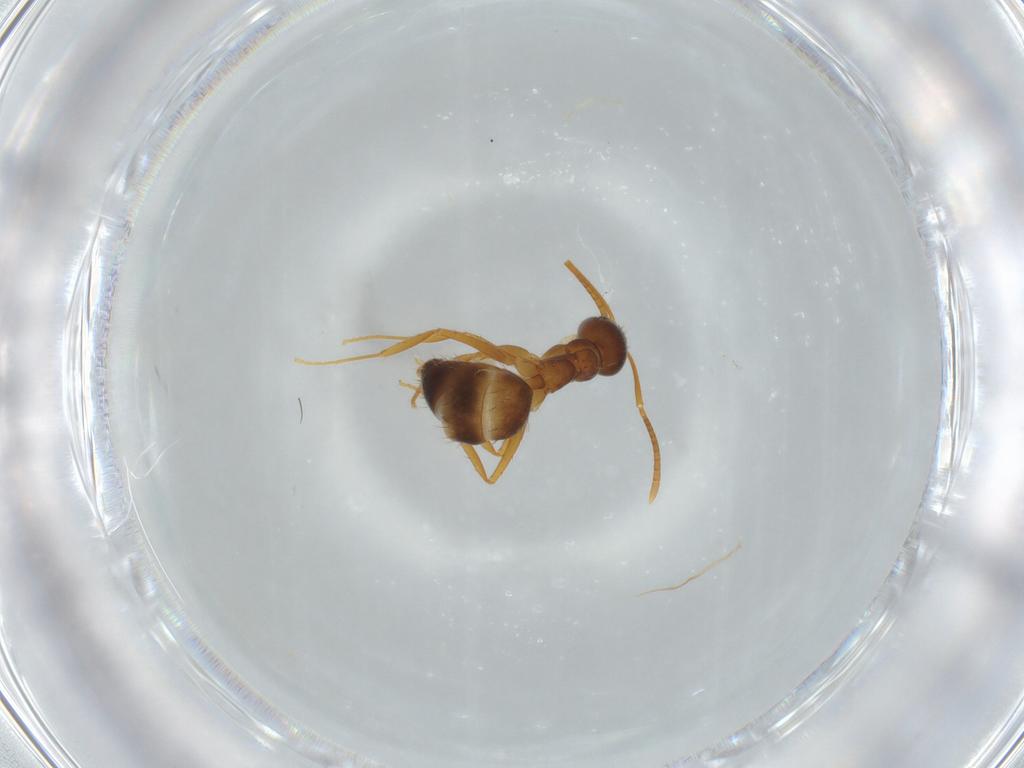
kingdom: Animalia
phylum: Arthropoda
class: Insecta
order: Hymenoptera
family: Formicidae
